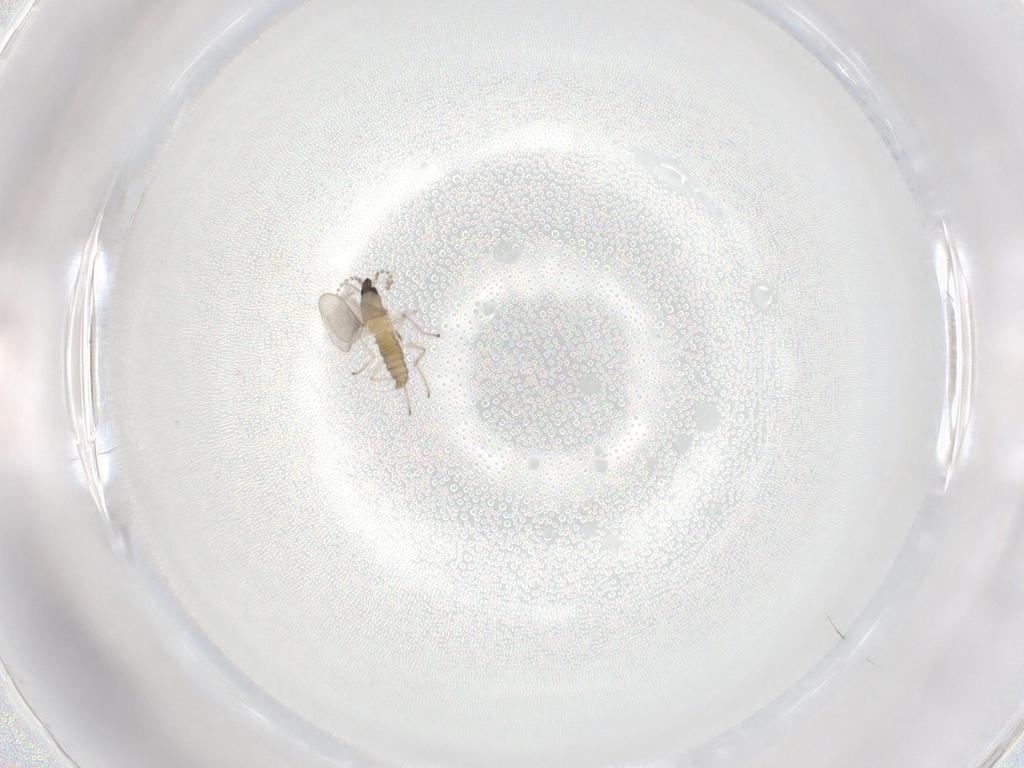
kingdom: Animalia
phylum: Arthropoda
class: Insecta
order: Diptera
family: Cecidomyiidae
